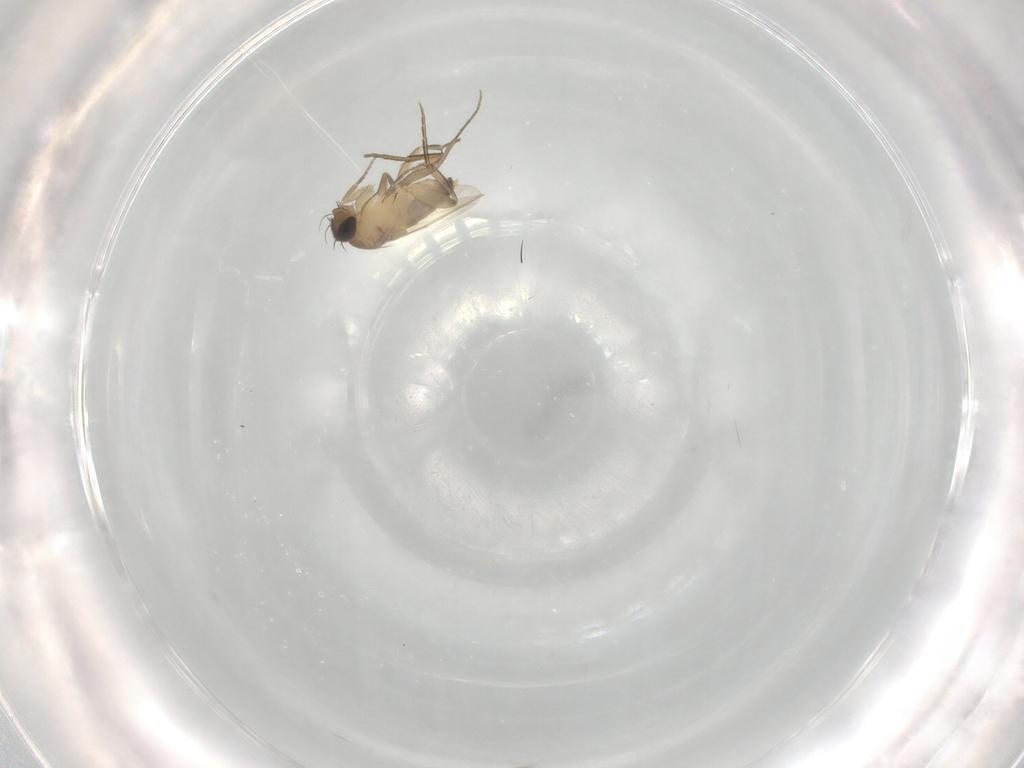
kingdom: Animalia
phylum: Arthropoda
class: Insecta
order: Diptera
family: Phoridae
